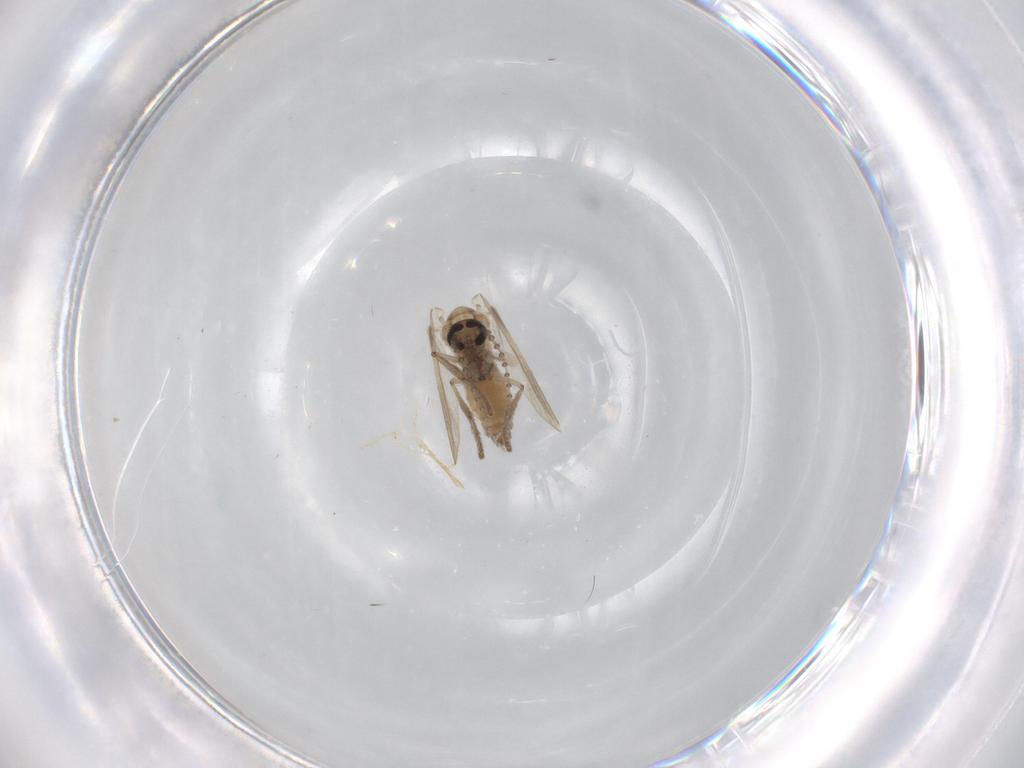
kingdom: Animalia
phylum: Arthropoda
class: Insecta
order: Diptera
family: Psychodidae
